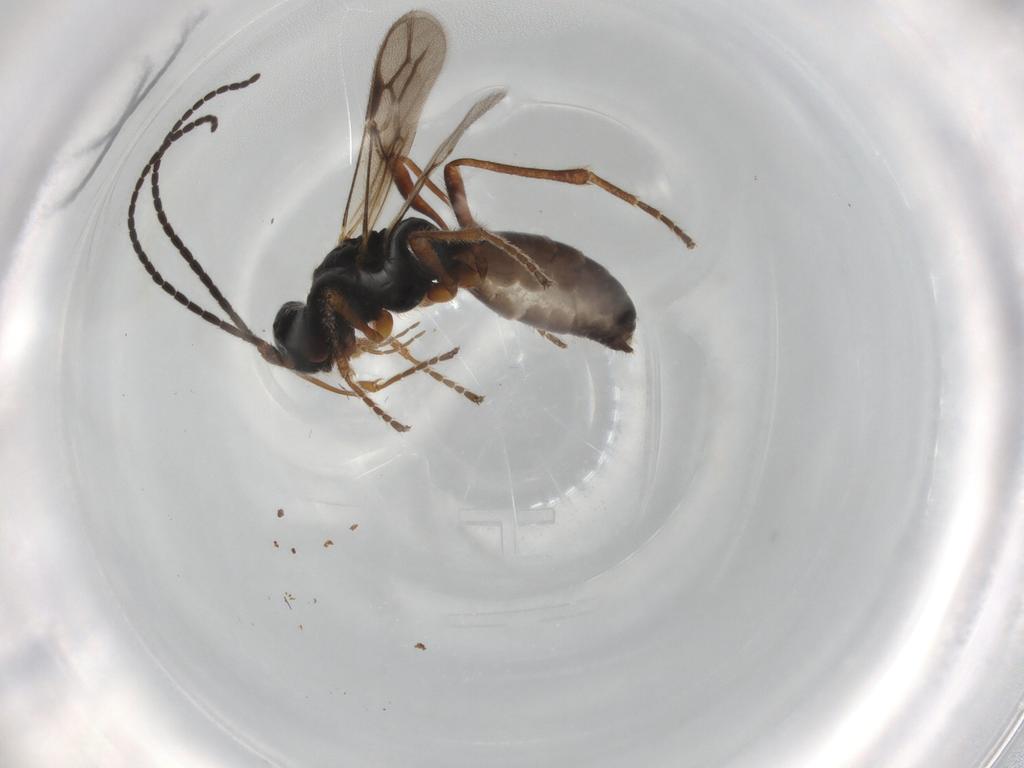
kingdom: Animalia
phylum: Arthropoda
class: Insecta
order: Hymenoptera
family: Braconidae
